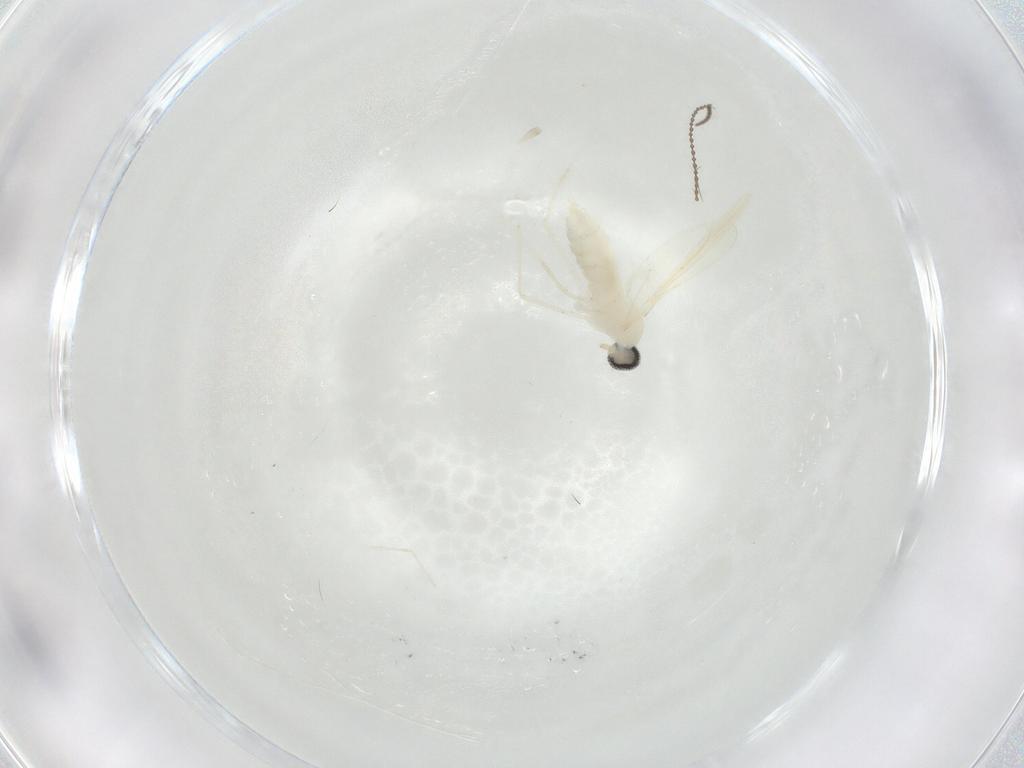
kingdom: Animalia
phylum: Arthropoda
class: Insecta
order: Diptera
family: Cecidomyiidae
